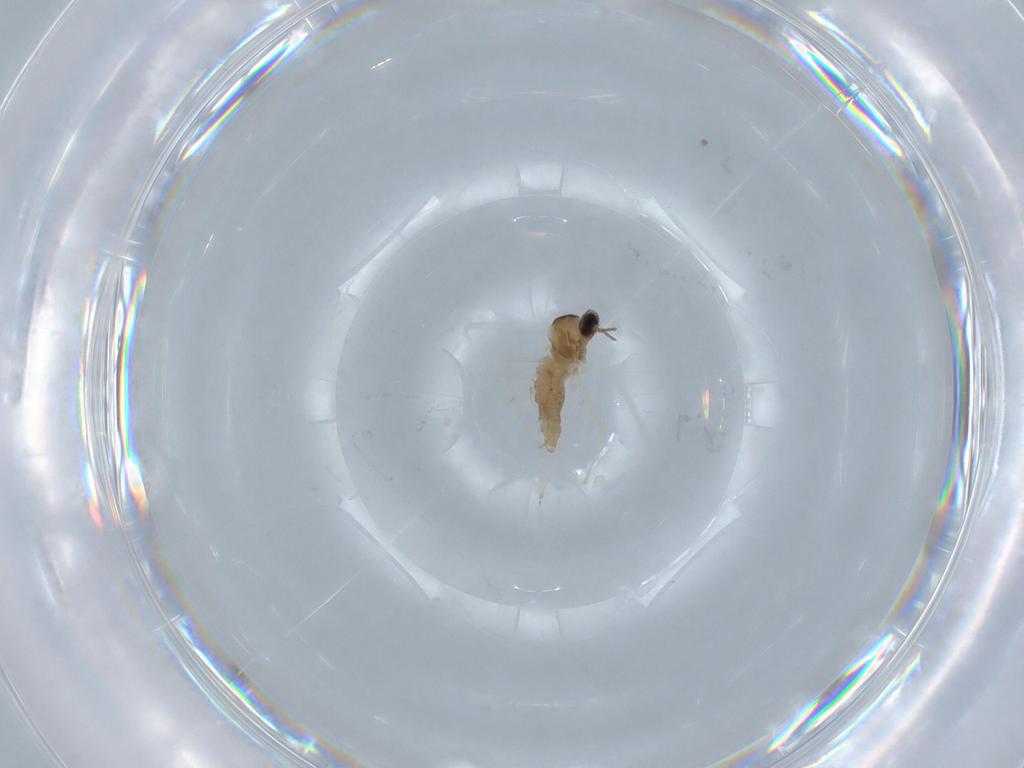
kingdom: Animalia
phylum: Arthropoda
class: Insecta
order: Diptera
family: Cecidomyiidae
